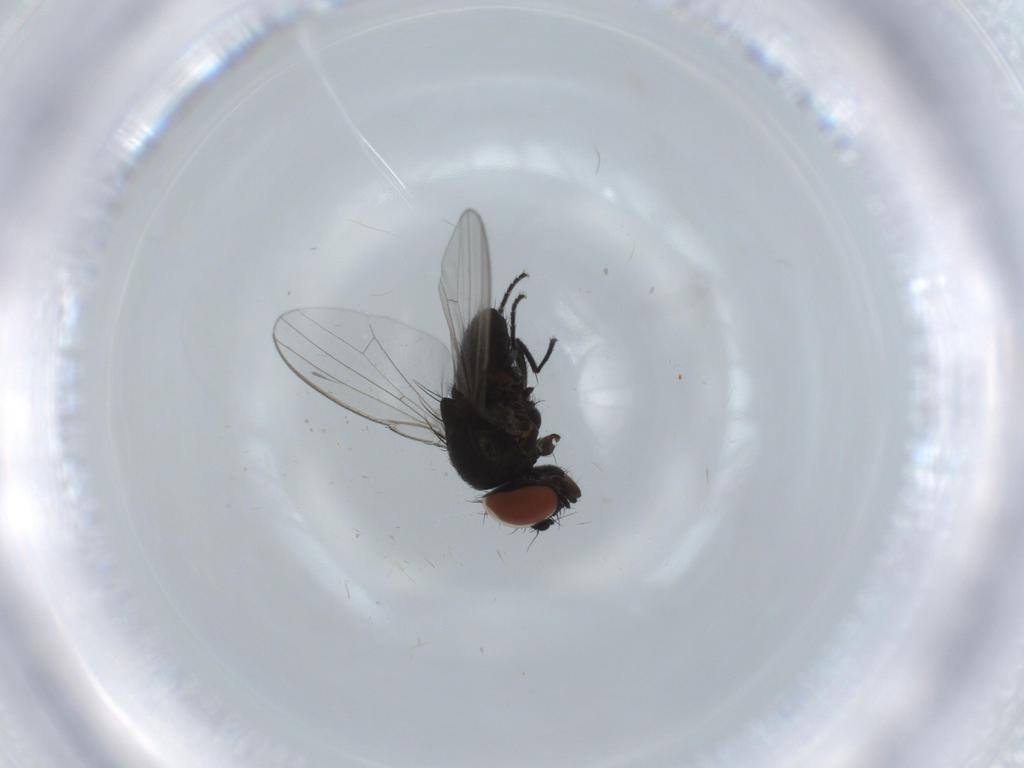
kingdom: Animalia
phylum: Arthropoda
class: Insecta
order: Diptera
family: Milichiidae
